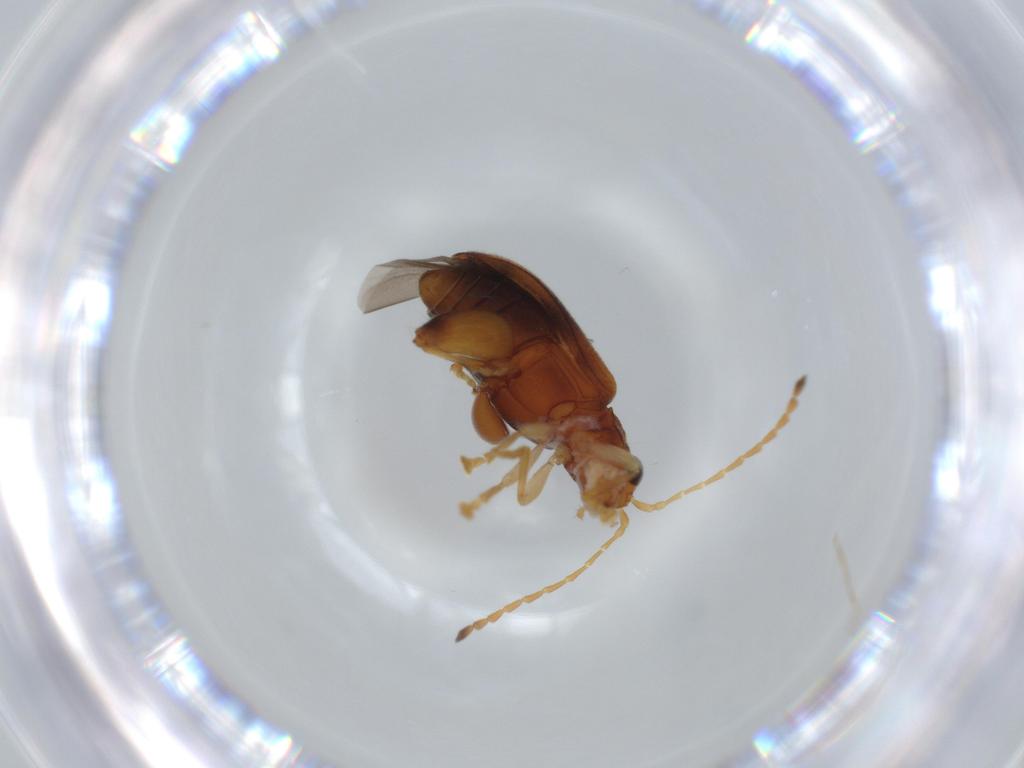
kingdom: Animalia
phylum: Arthropoda
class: Insecta
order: Coleoptera
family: Chrysomelidae
